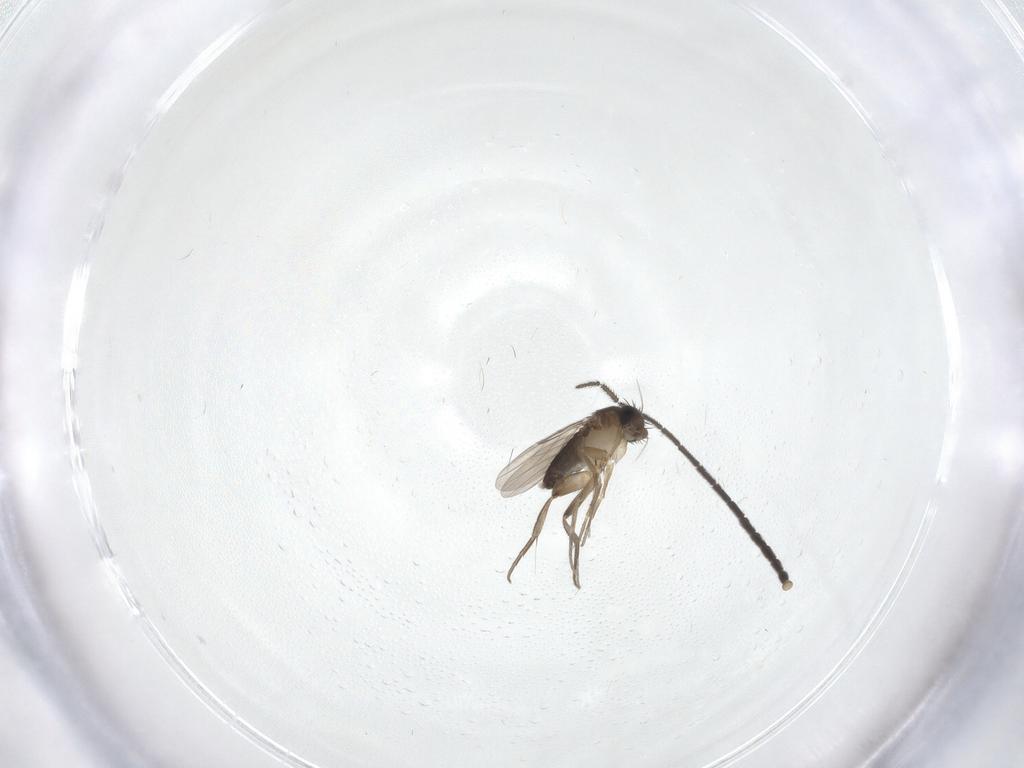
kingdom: Animalia
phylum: Arthropoda
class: Insecta
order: Diptera
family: Phoridae
